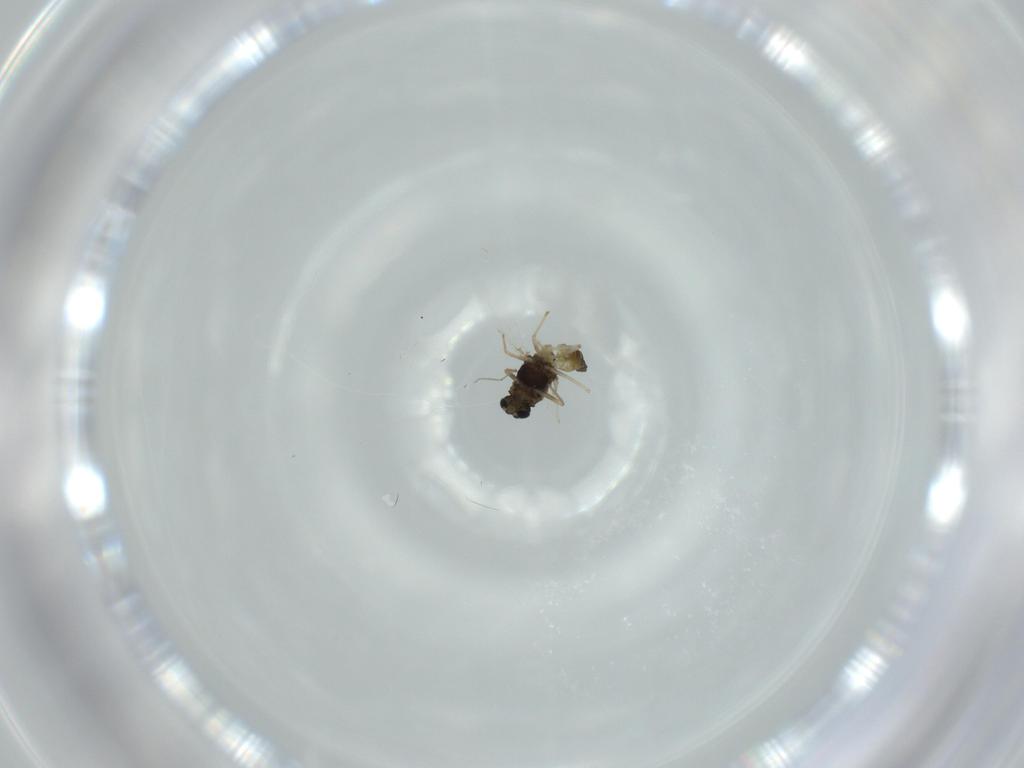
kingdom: Animalia
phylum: Arthropoda
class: Insecta
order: Diptera
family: Chironomidae
